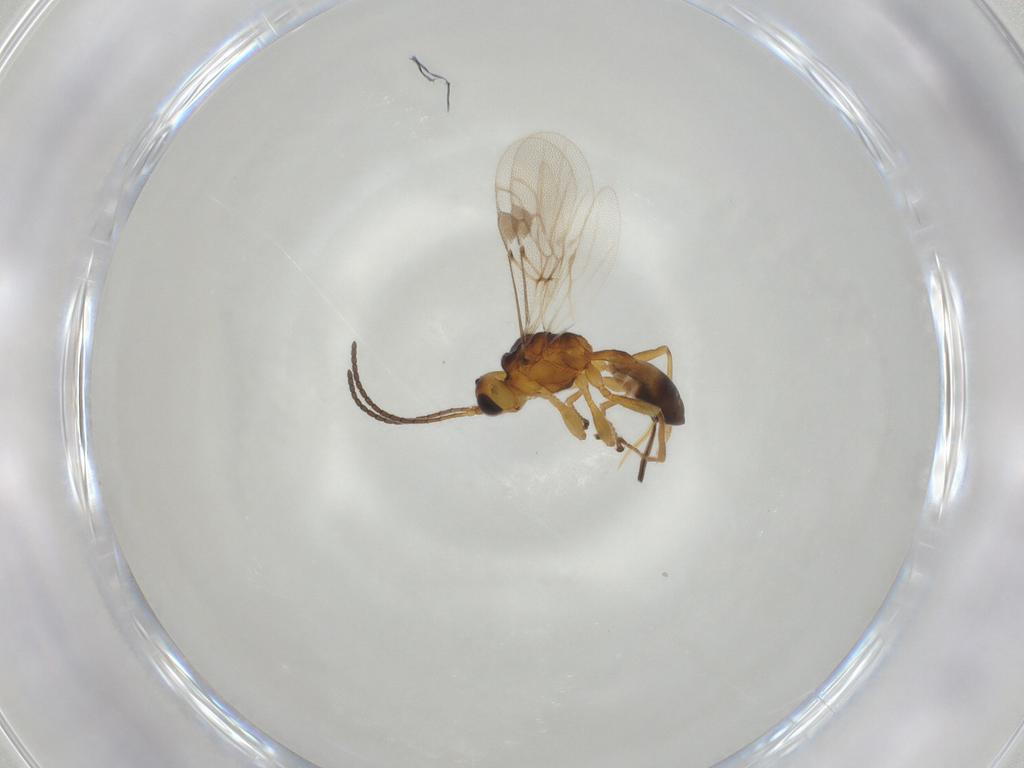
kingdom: Animalia
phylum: Arthropoda
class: Insecta
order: Hymenoptera
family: Braconidae
